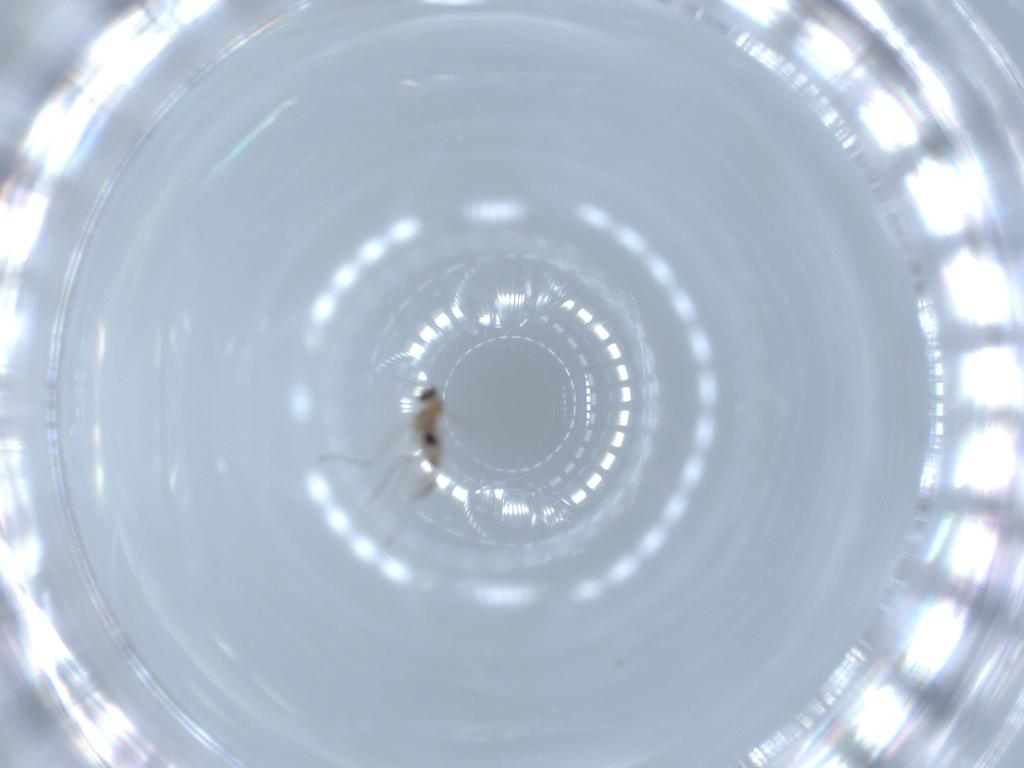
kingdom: Animalia
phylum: Arthropoda
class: Insecta
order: Diptera
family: Cecidomyiidae
